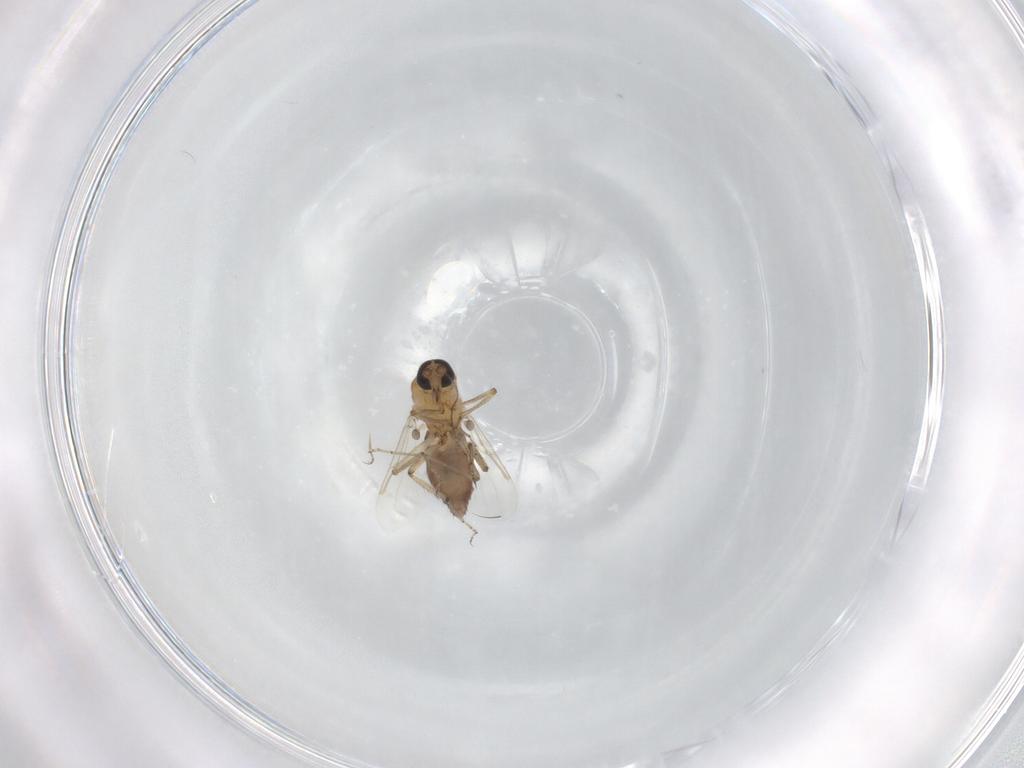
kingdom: Animalia
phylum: Arthropoda
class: Insecta
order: Diptera
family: Ceratopogonidae
